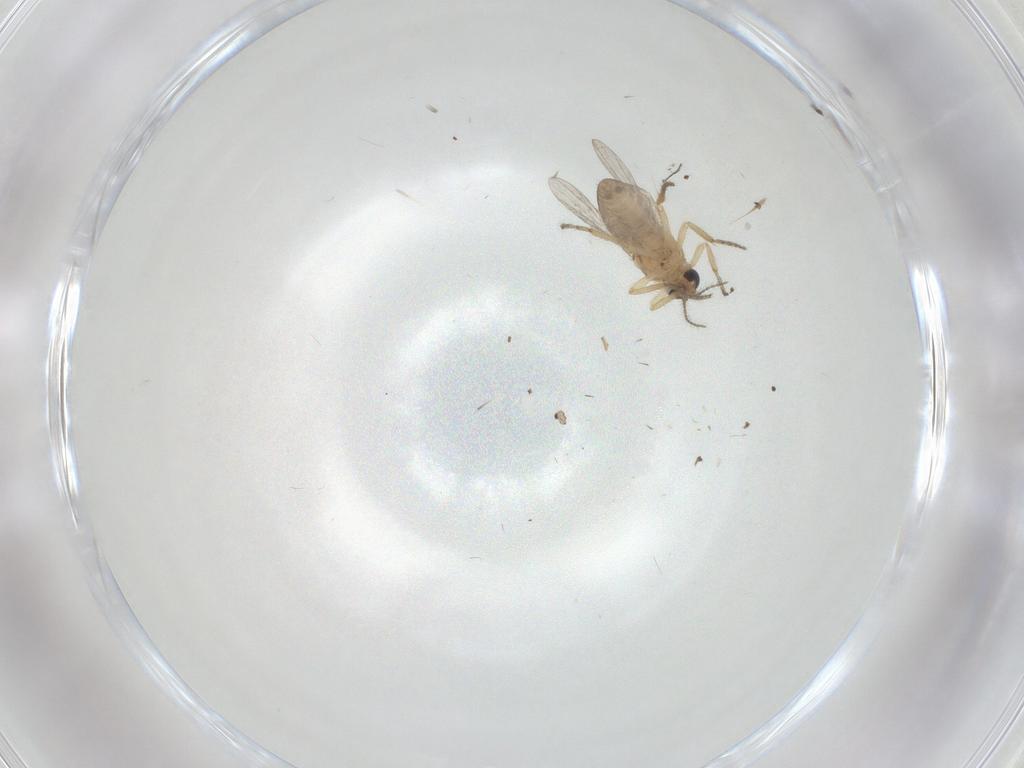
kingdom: Animalia
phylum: Arthropoda
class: Insecta
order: Diptera
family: Ceratopogonidae
